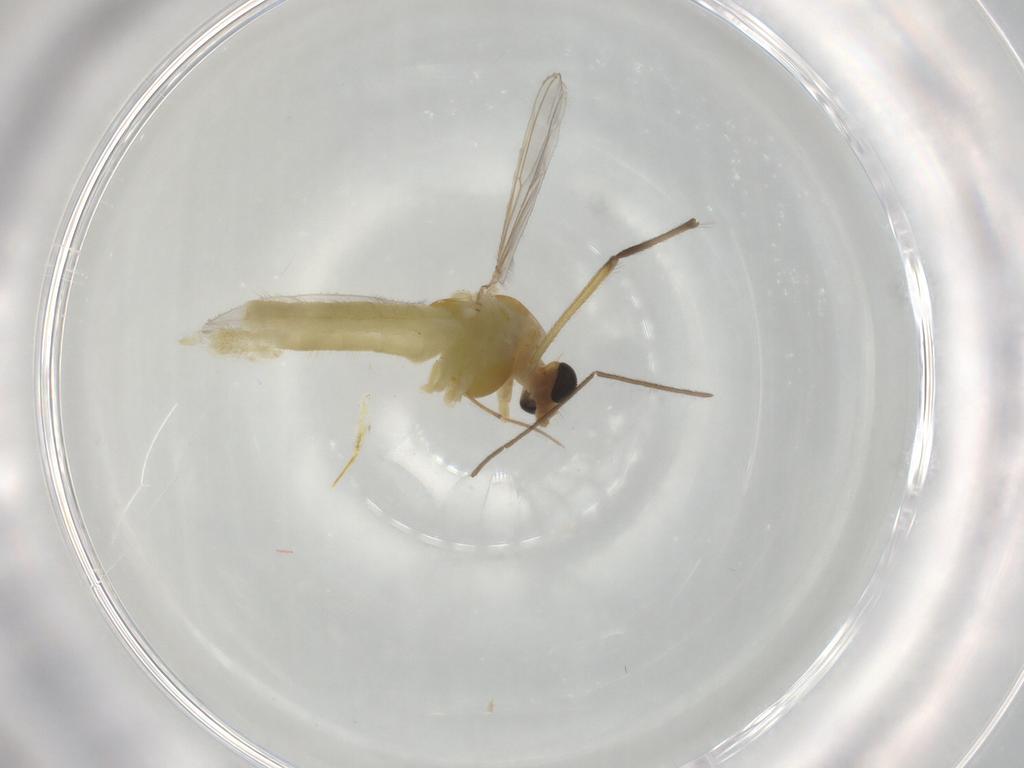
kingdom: Animalia
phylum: Arthropoda
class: Insecta
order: Diptera
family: Chironomidae
